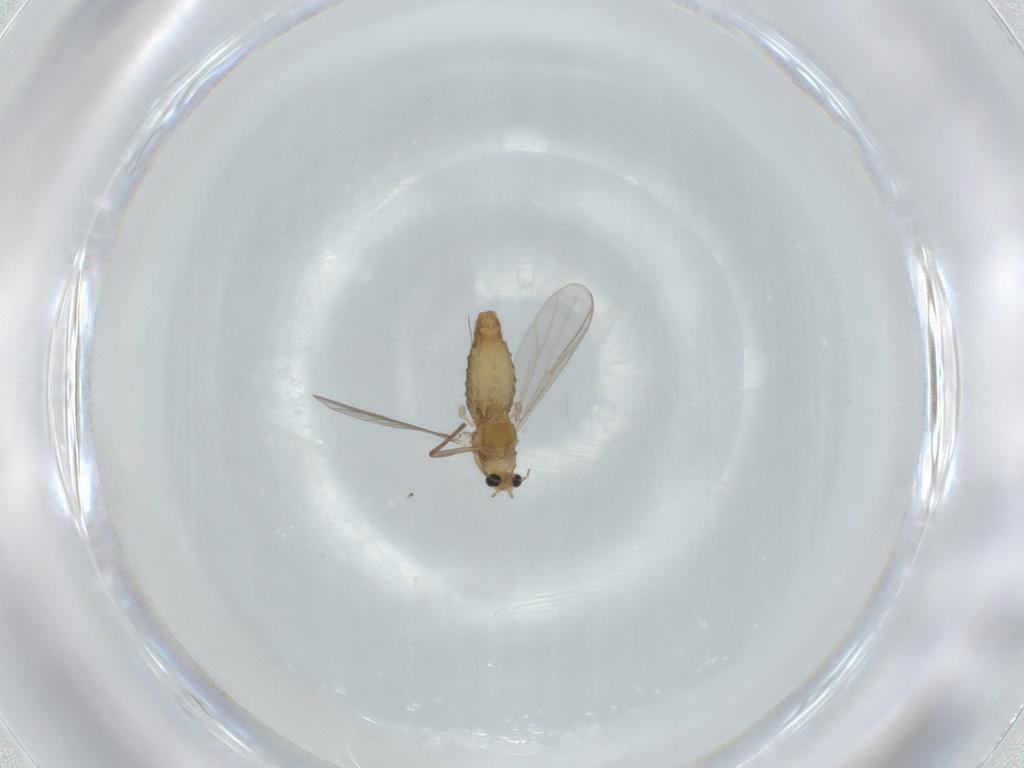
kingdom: Animalia
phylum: Arthropoda
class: Insecta
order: Diptera
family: Chironomidae
